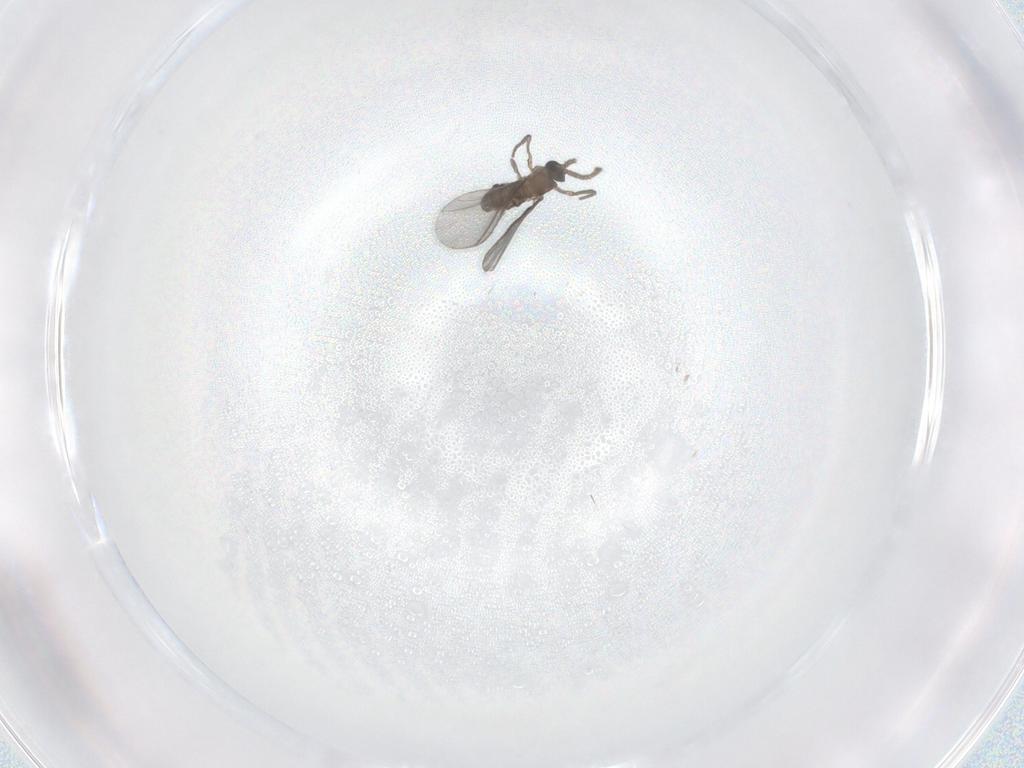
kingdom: Animalia
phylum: Arthropoda
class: Insecta
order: Diptera
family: Sciaridae
